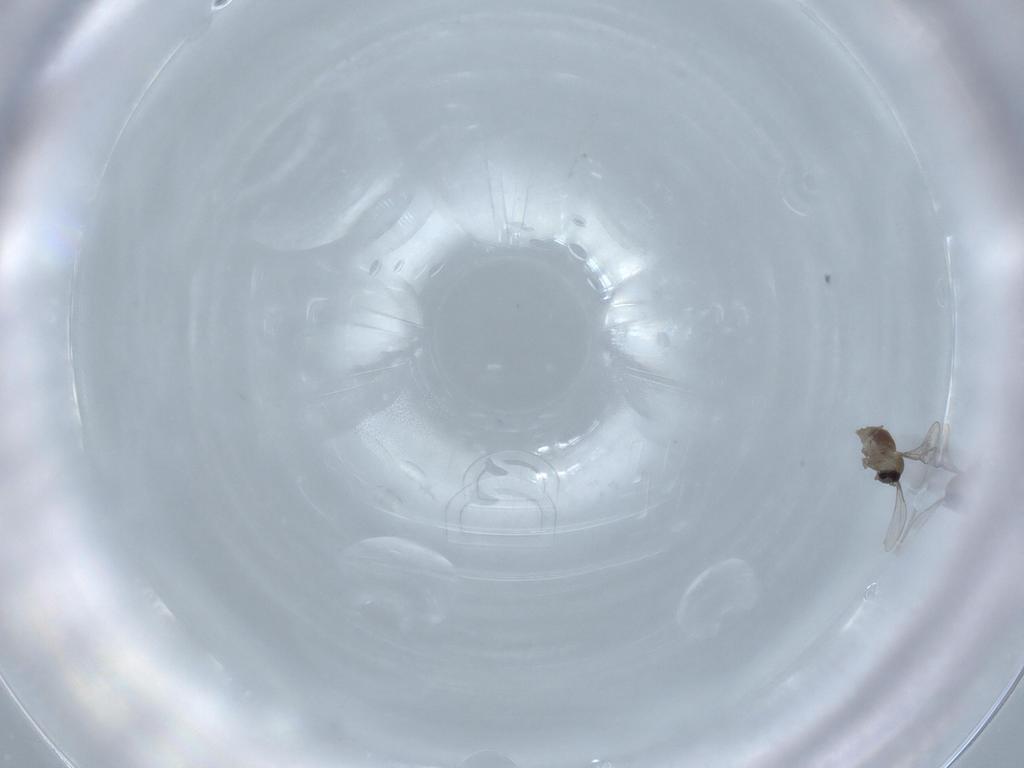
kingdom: Animalia
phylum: Arthropoda
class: Insecta
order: Diptera
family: Cecidomyiidae
